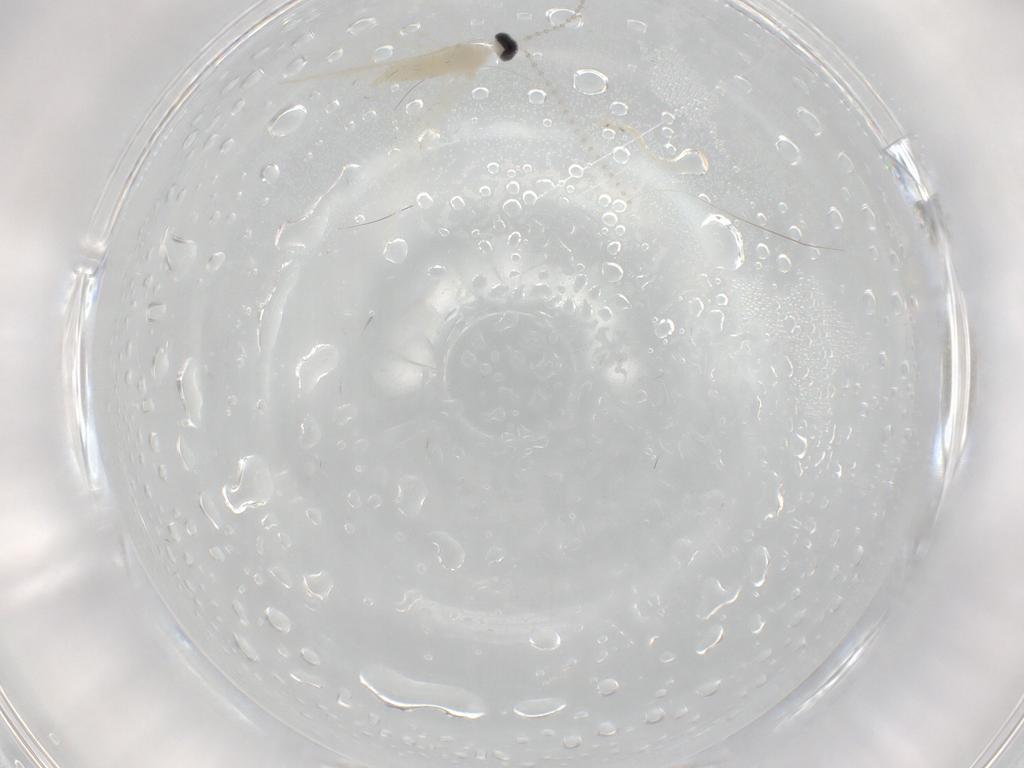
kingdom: Animalia
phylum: Arthropoda
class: Insecta
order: Diptera
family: Cecidomyiidae
